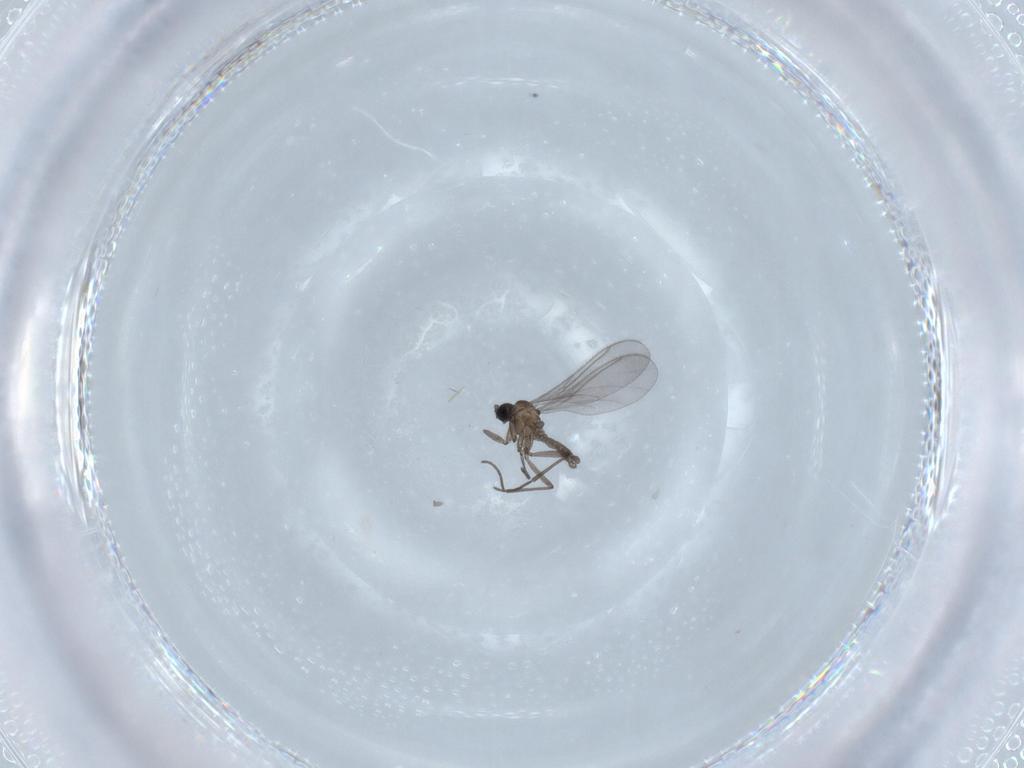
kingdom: Animalia
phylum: Arthropoda
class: Insecta
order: Diptera
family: Sciaridae
